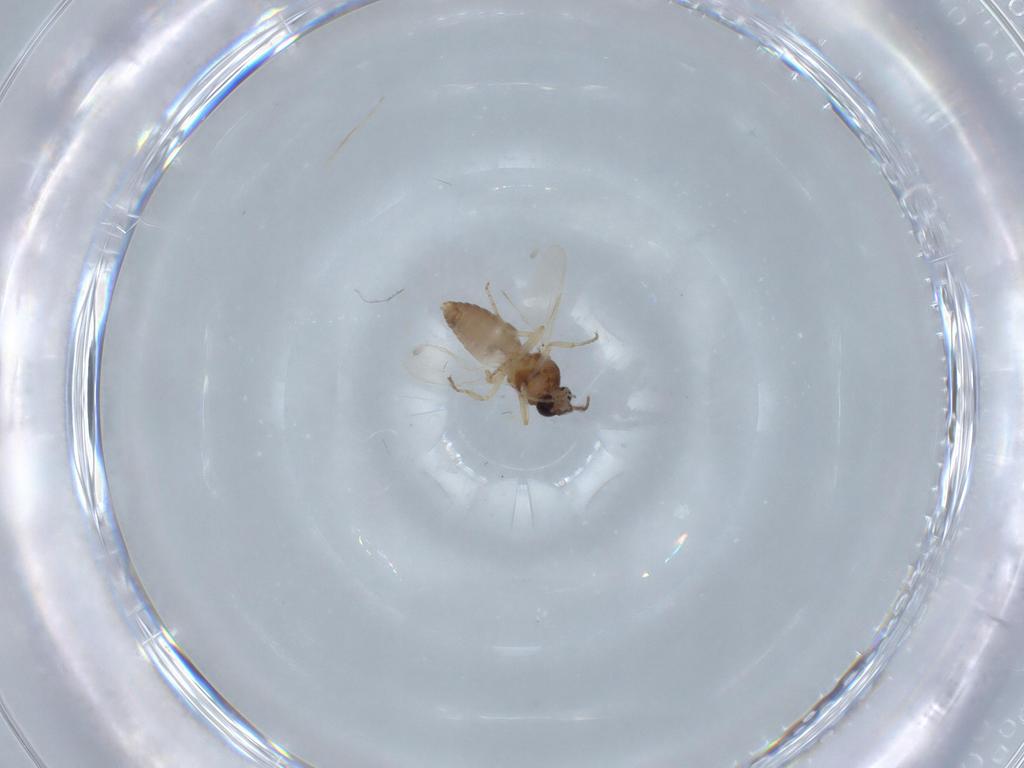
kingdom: Animalia
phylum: Arthropoda
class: Insecta
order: Diptera
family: Ceratopogonidae
